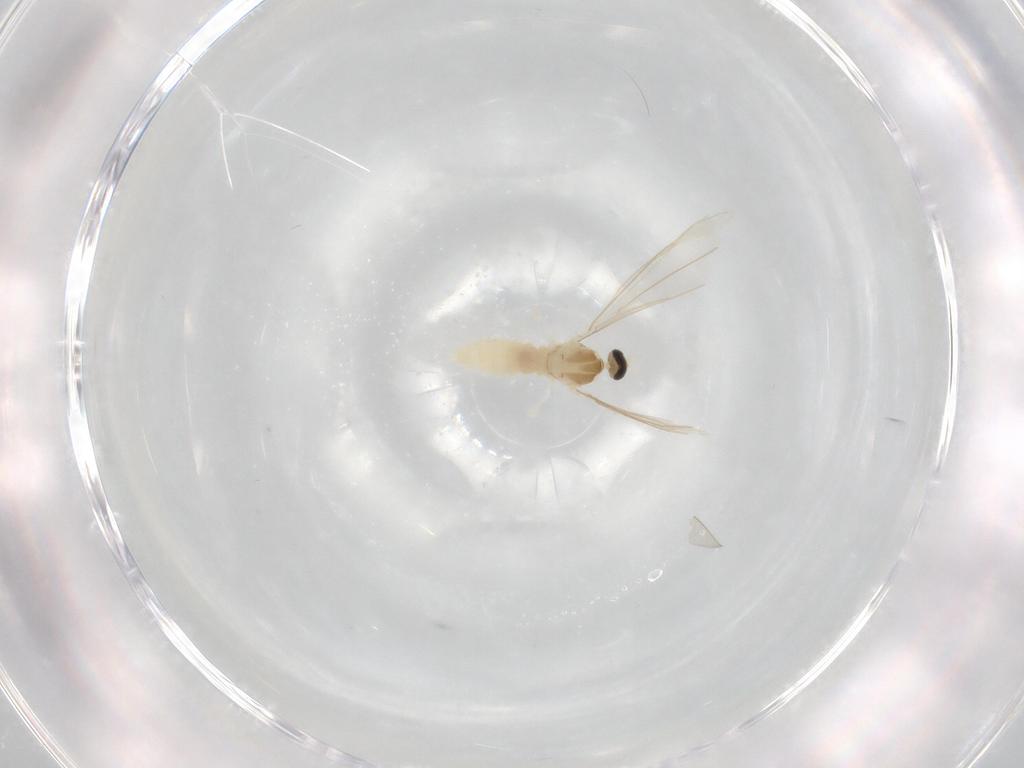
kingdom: Animalia
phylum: Arthropoda
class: Insecta
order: Diptera
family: Cecidomyiidae
